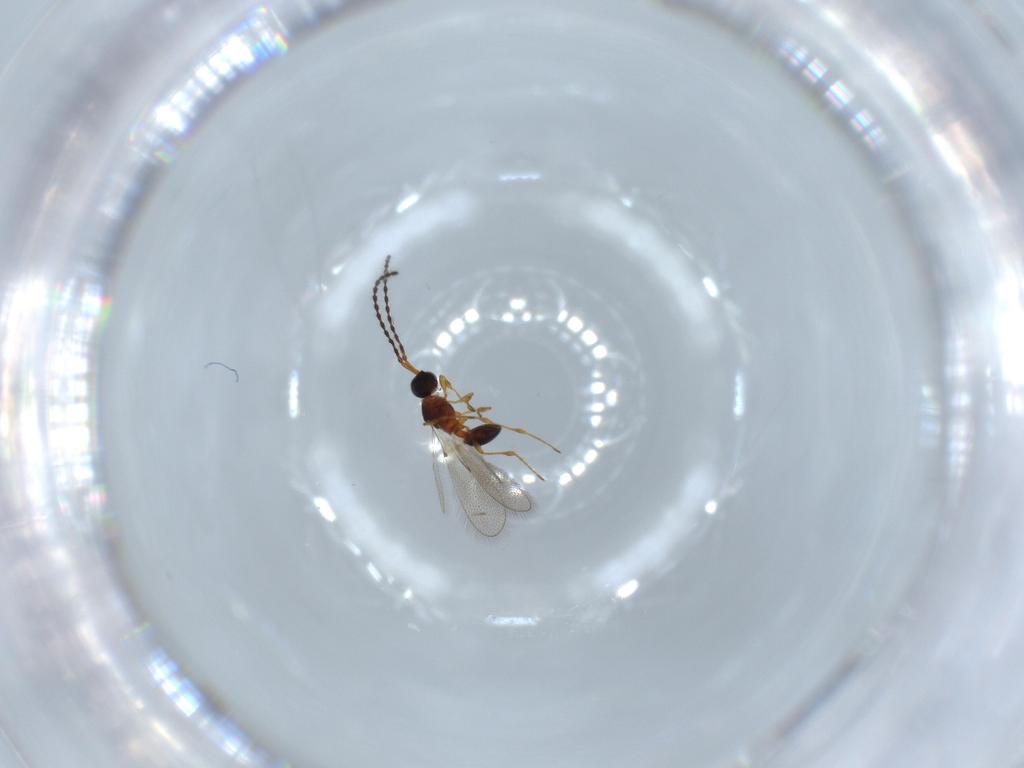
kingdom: Animalia
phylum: Arthropoda
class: Insecta
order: Hymenoptera
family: Diapriidae
